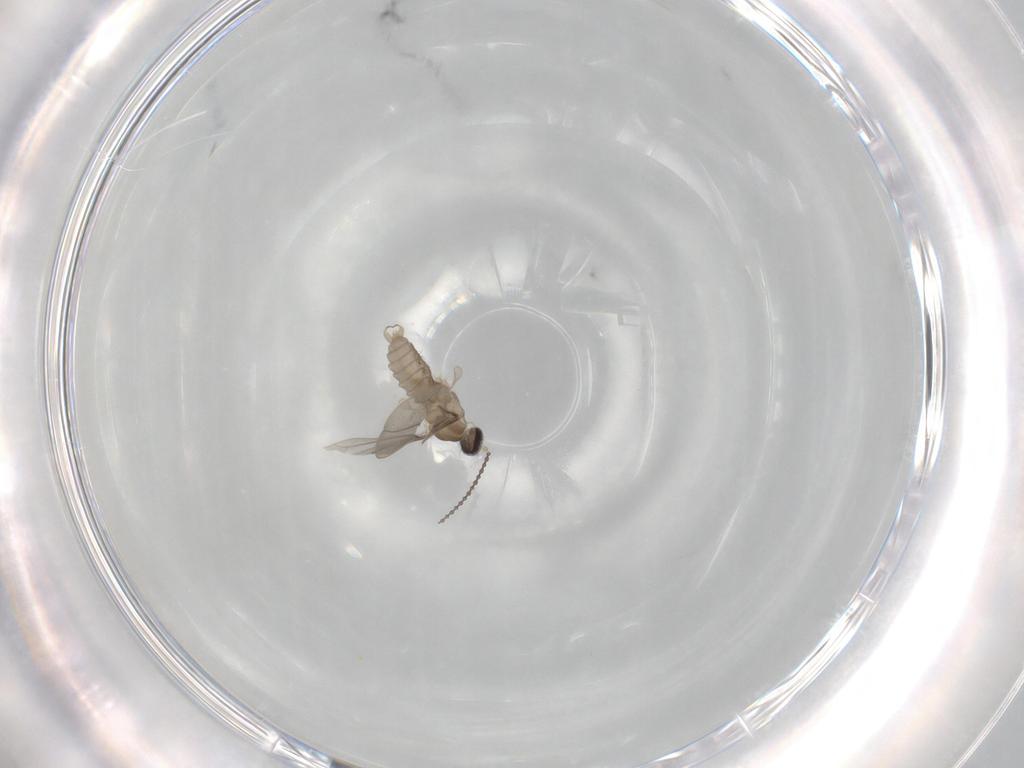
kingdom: Animalia
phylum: Arthropoda
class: Insecta
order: Diptera
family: Cecidomyiidae
